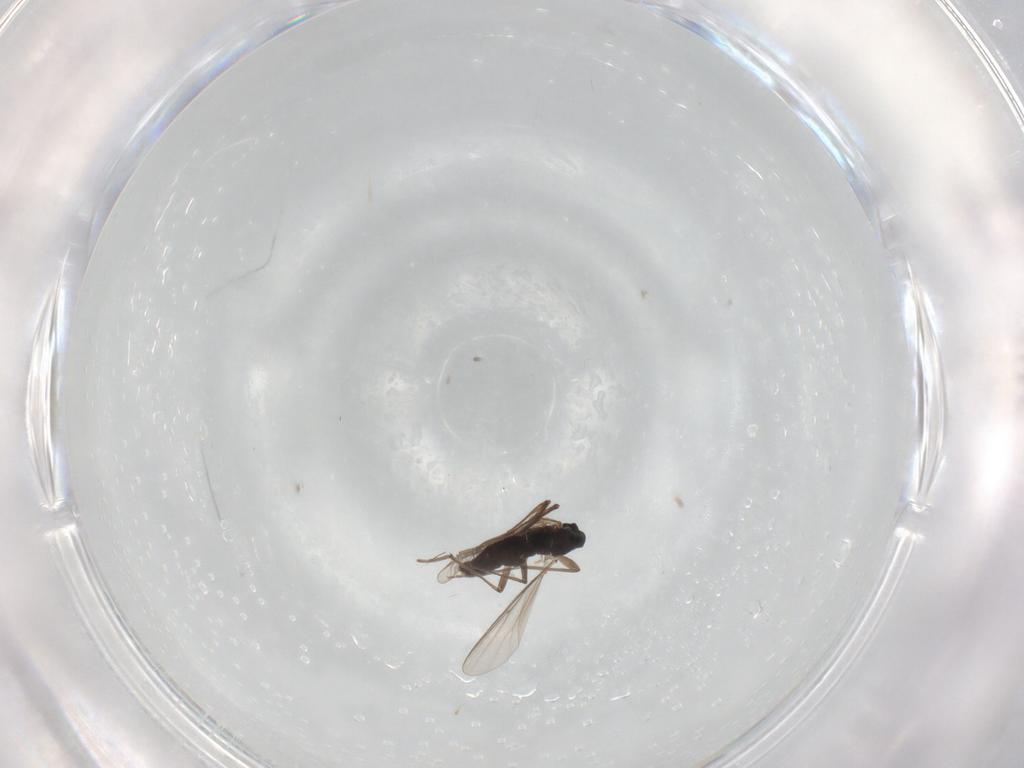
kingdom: Animalia
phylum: Arthropoda
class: Insecta
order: Diptera
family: Chironomidae
